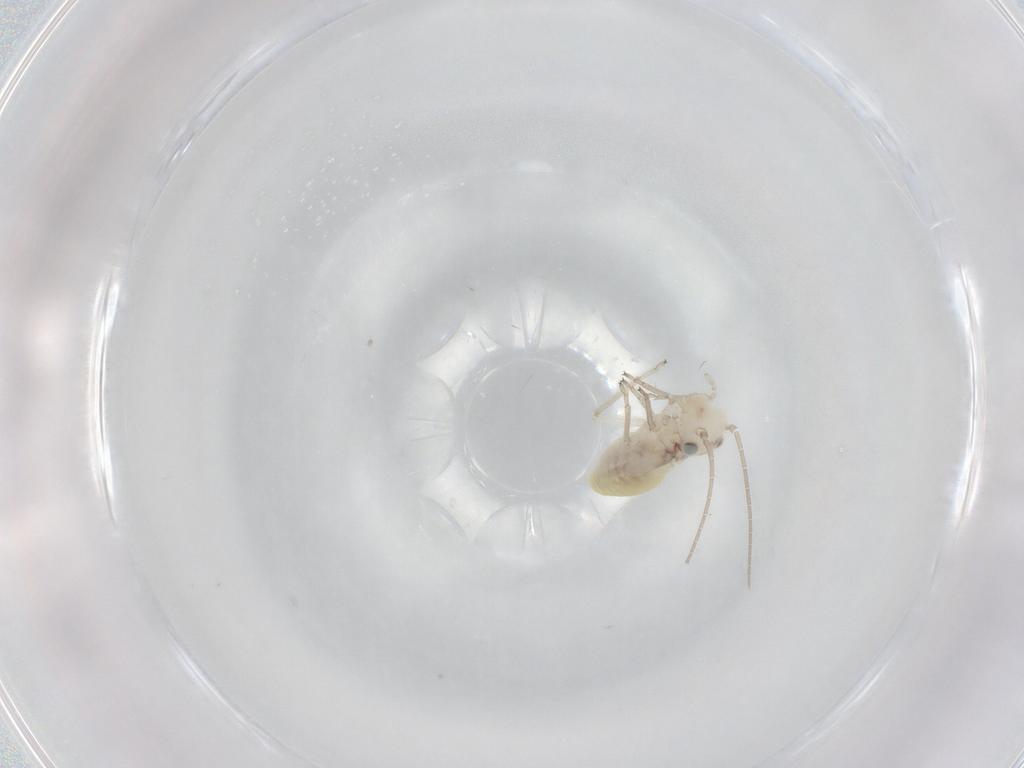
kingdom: Animalia
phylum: Arthropoda
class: Insecta
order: Psocodea
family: Caeciliusidae
